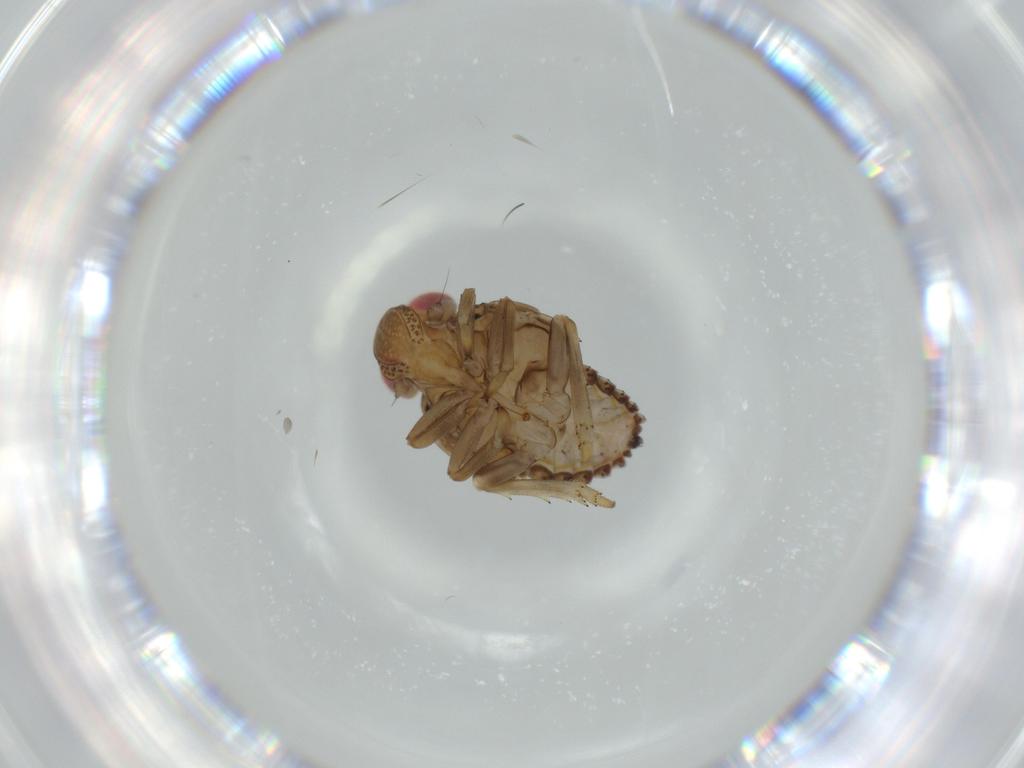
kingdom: Animalia
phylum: Arthropoda
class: Insecta
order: Hemiptera
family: Issidae
